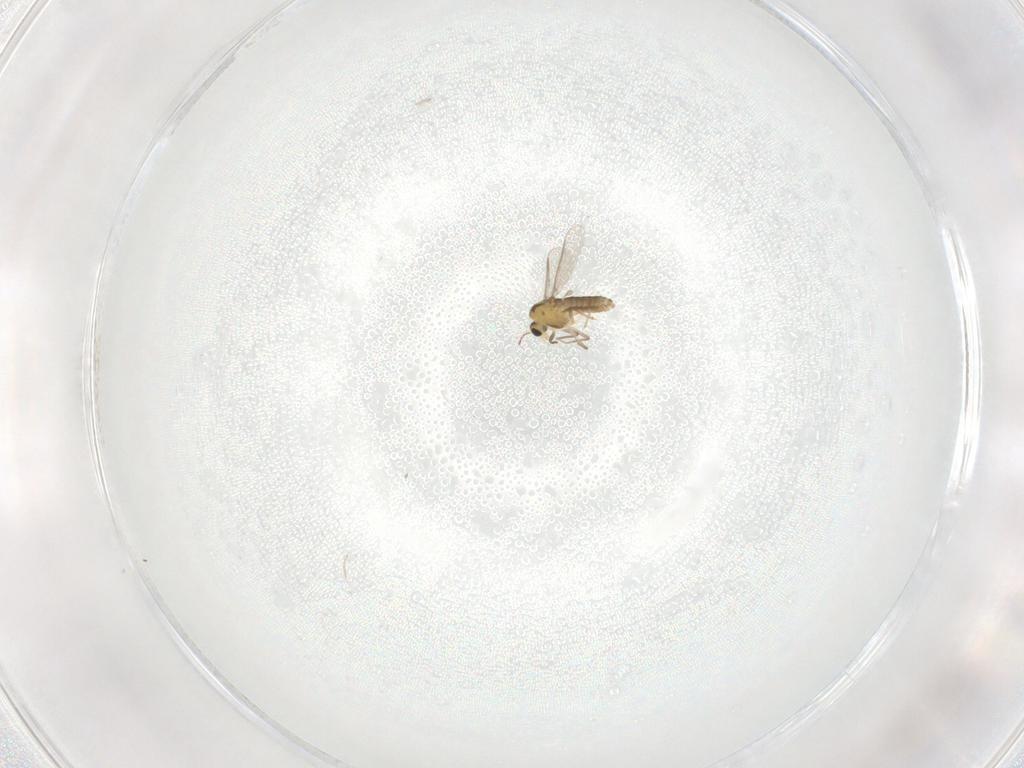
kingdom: Animalia
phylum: Arthropoda
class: Insecta
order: Diptera
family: Chironomidae
